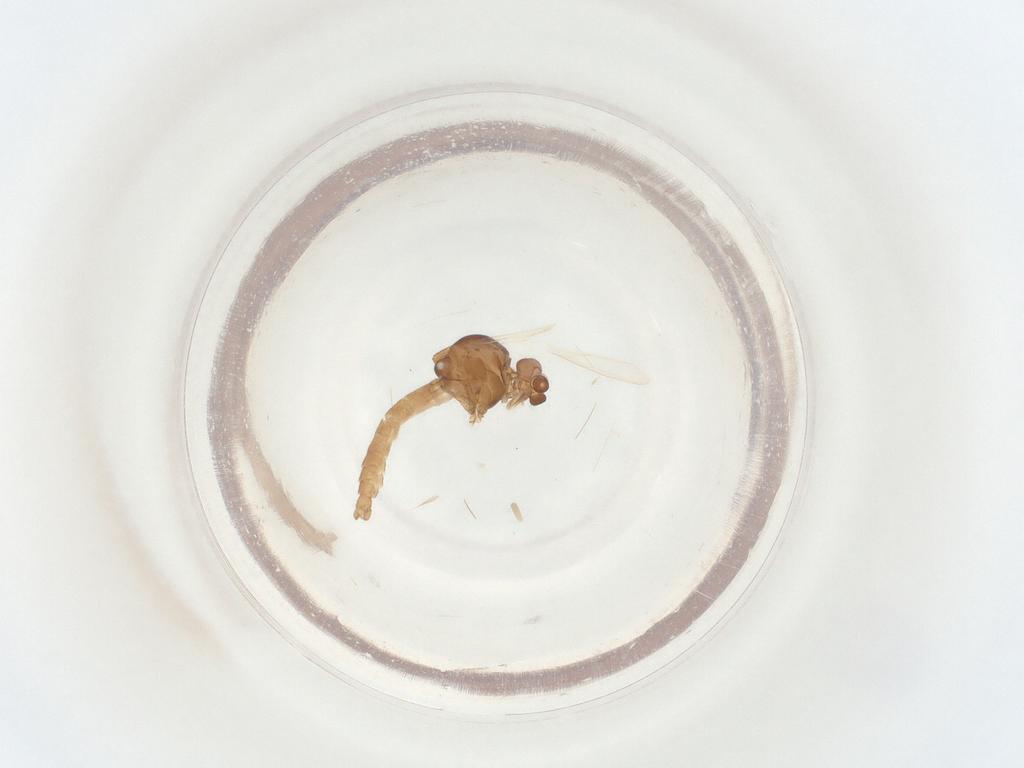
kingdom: Animalia
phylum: Arthropoda
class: Insecta
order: Diptera
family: Ceratopogonidae
